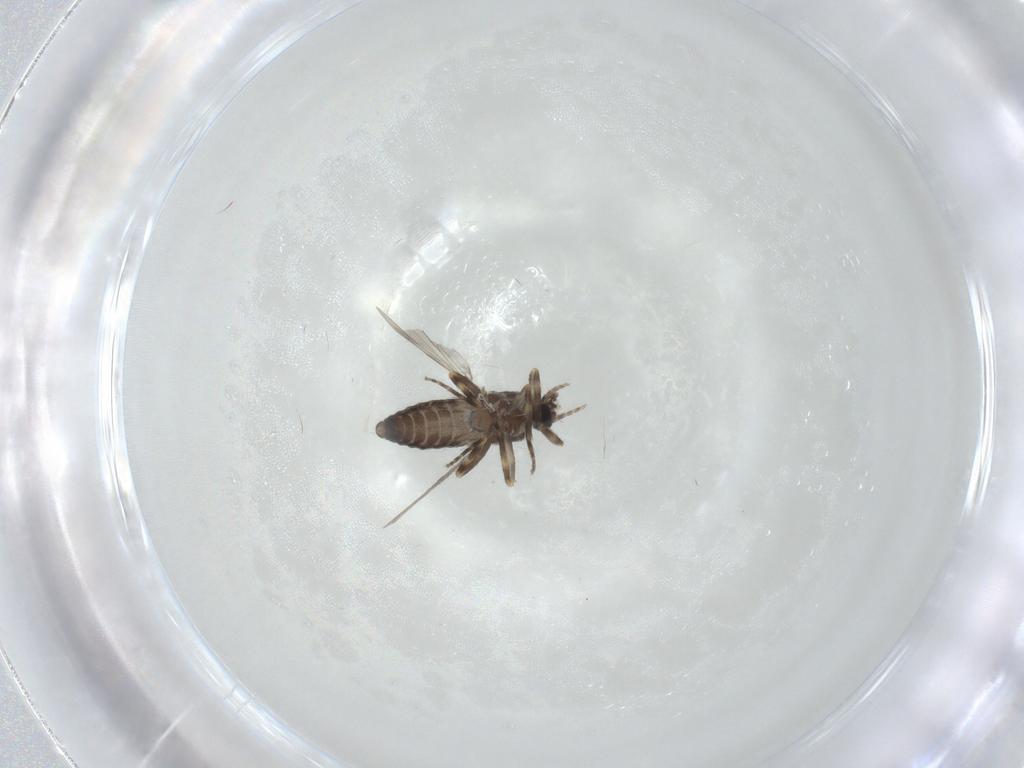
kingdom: Animalia
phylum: Arthropoda
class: Insecta
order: Diptera
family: Ceratopogonidae
